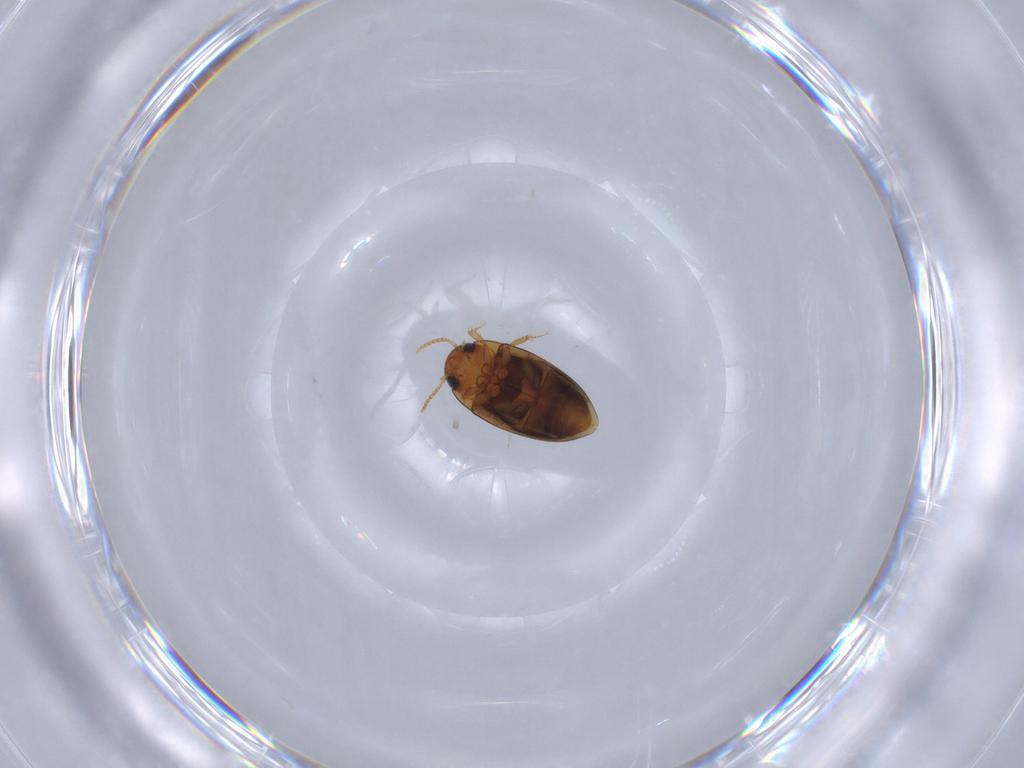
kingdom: Animalia
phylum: Arthropoda
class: Insecta
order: Coleoptera
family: Noteridae
